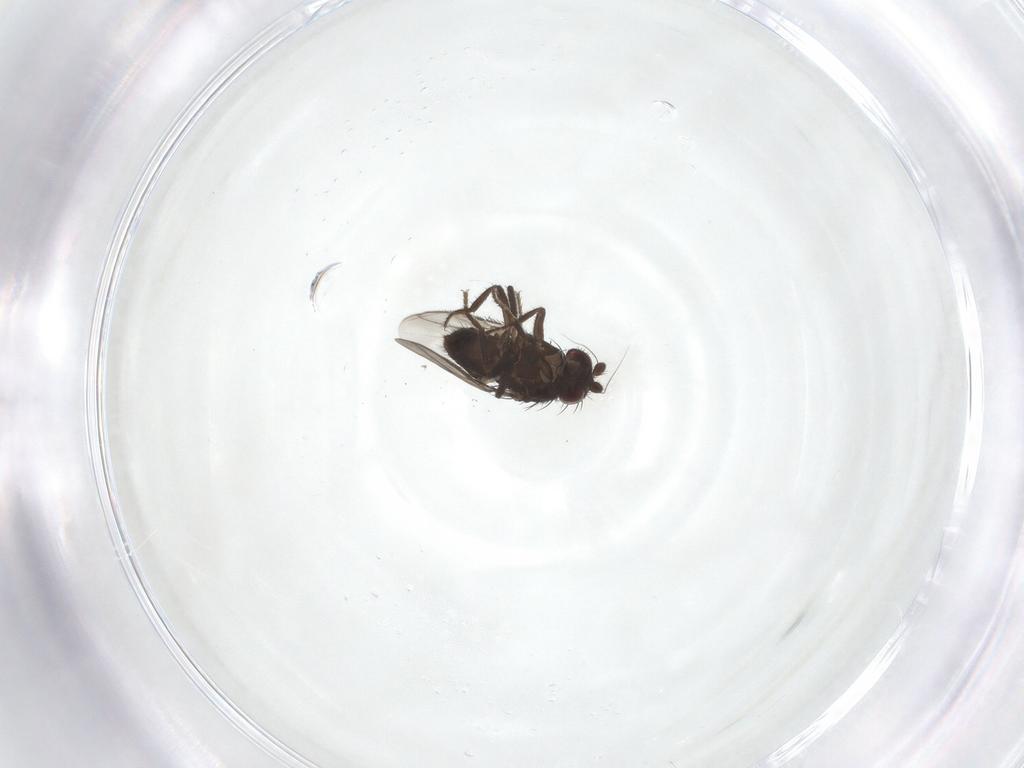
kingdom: Animalia
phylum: Arthropoda
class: Insecta
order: Diptera
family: Sphaeroceridae
